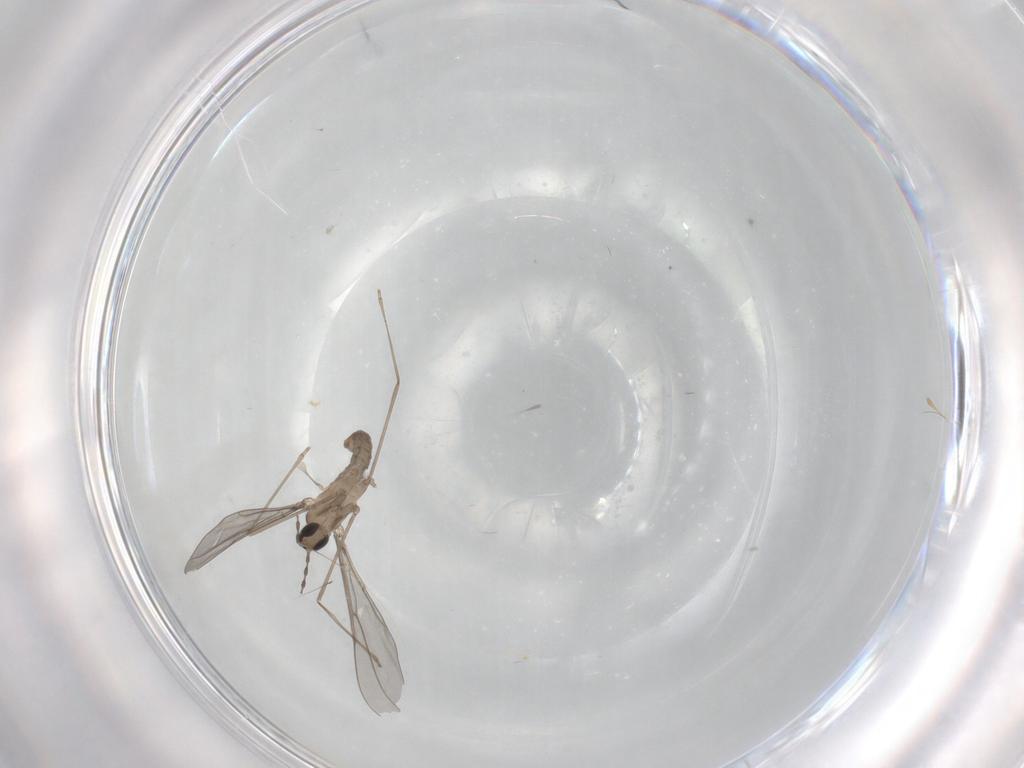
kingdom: Animalia
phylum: Arthropoda
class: Insecta
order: Diptera
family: Cecidomyiidae
